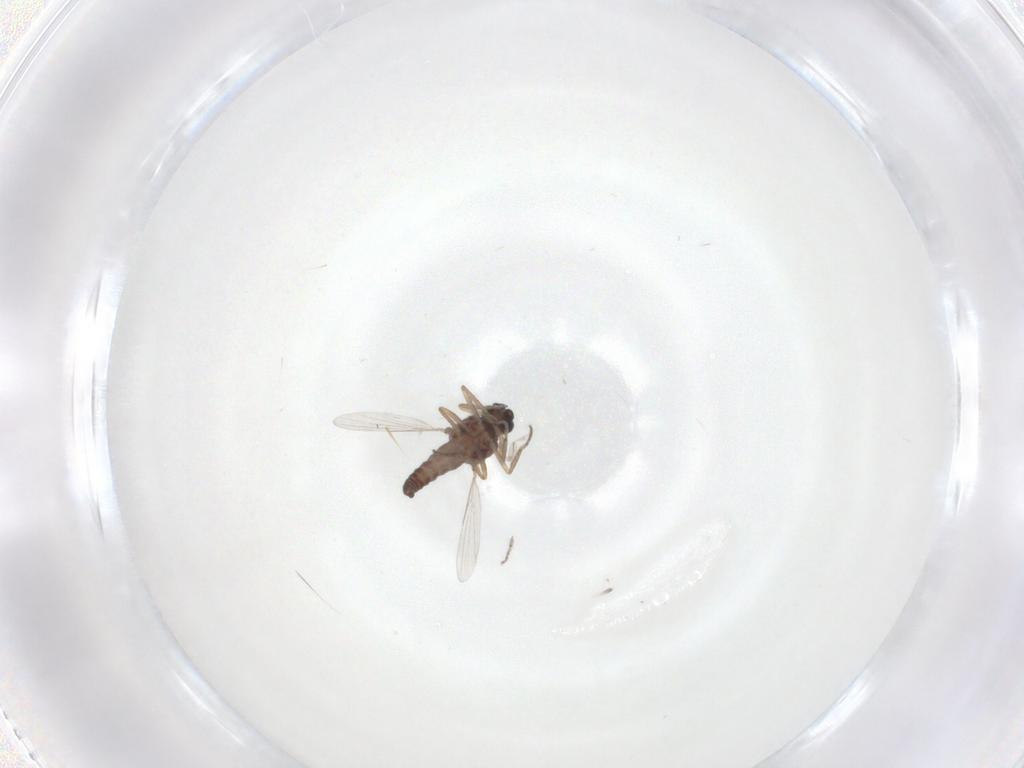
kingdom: Animalia
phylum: Arthropoda
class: Insecta
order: Diptera
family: Ceratopogonidae
